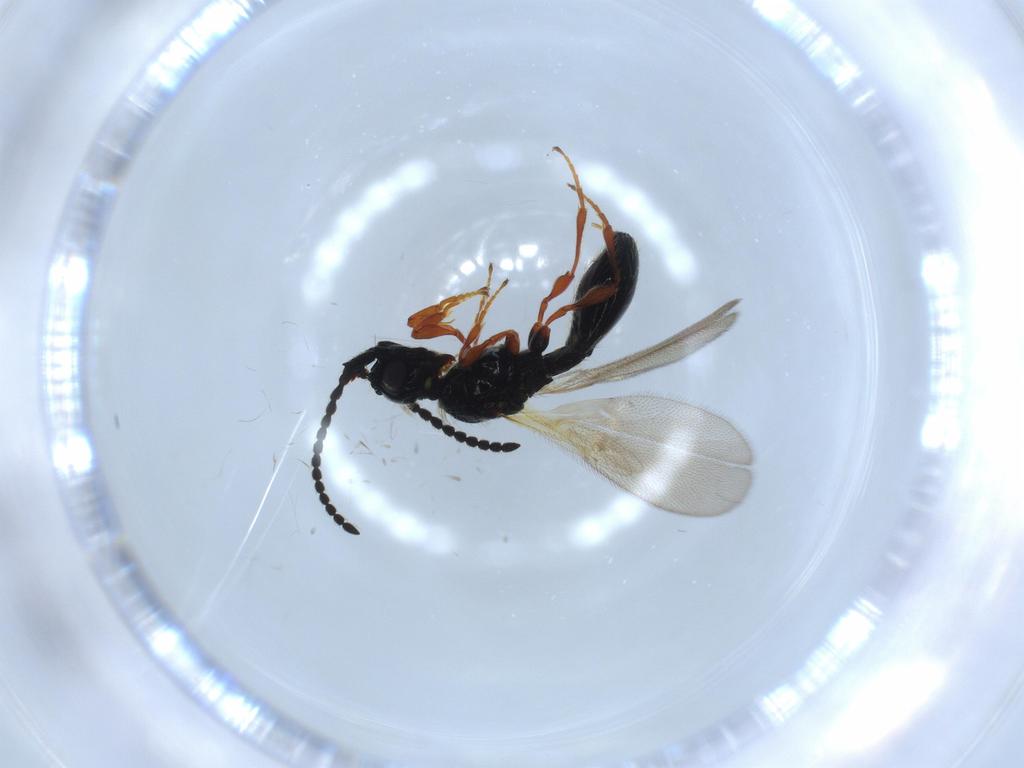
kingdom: Animalia
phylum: Arthropoda
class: Insecta
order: Hymenoptera
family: Diapriidae
